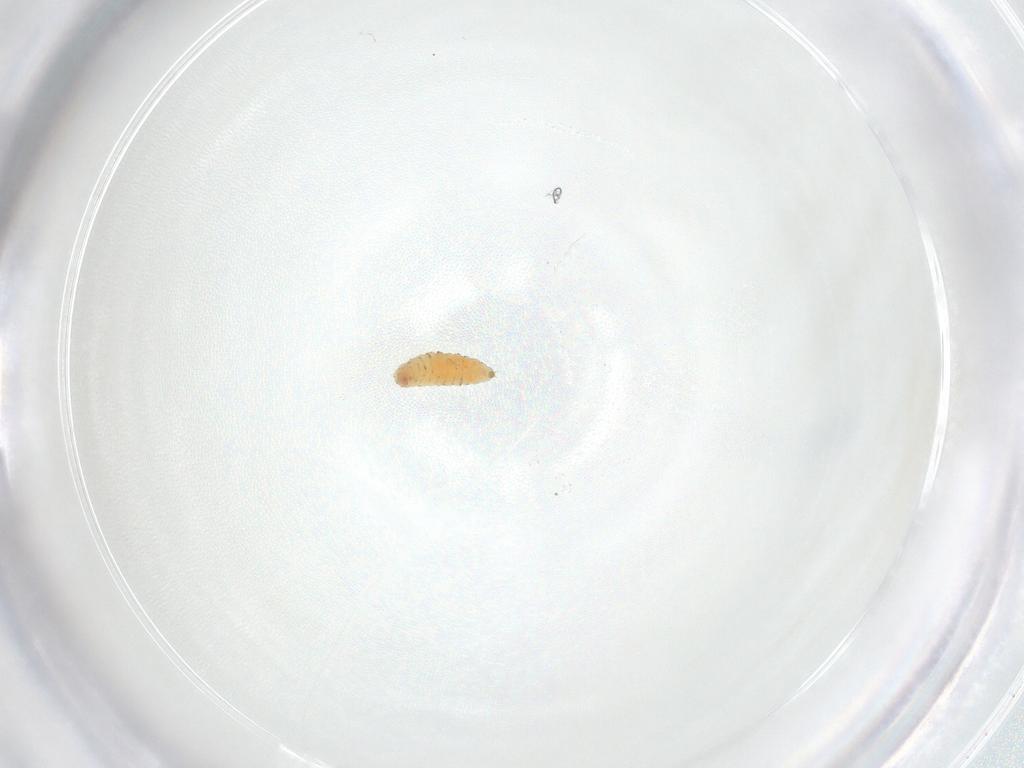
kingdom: Animalia
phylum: Arthropoda
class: Insecta
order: Diptera
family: Cecidomyiidae
